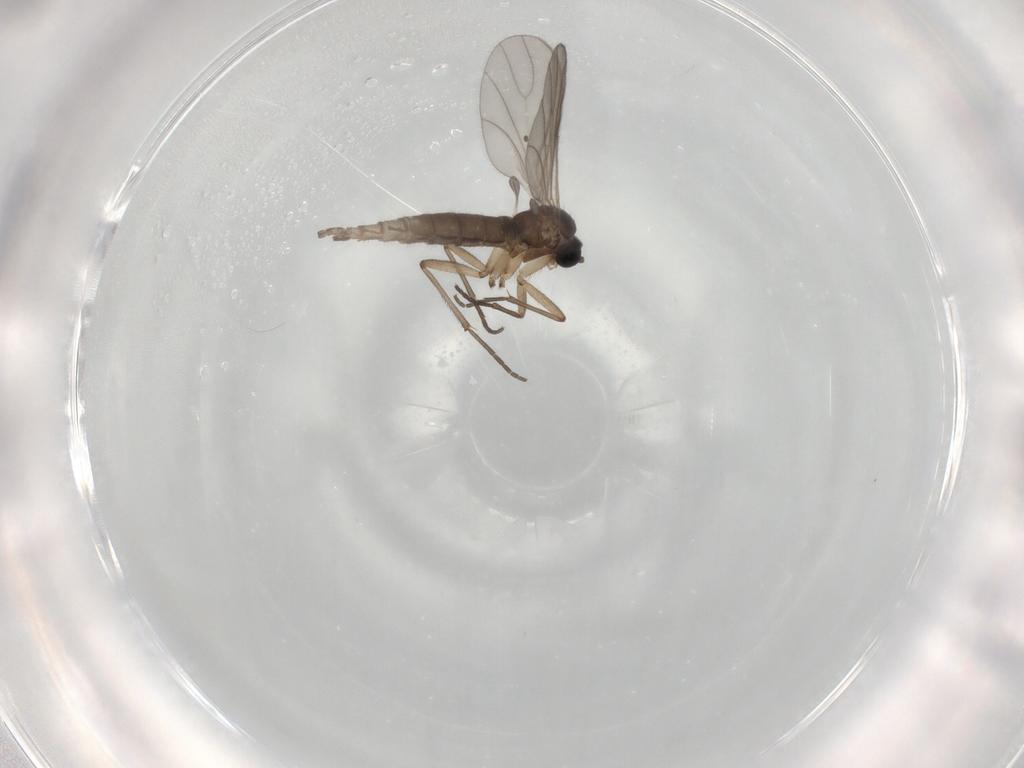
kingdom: Animalia
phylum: Arthropoda
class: Insecta
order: Diptera
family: Sciaridae
